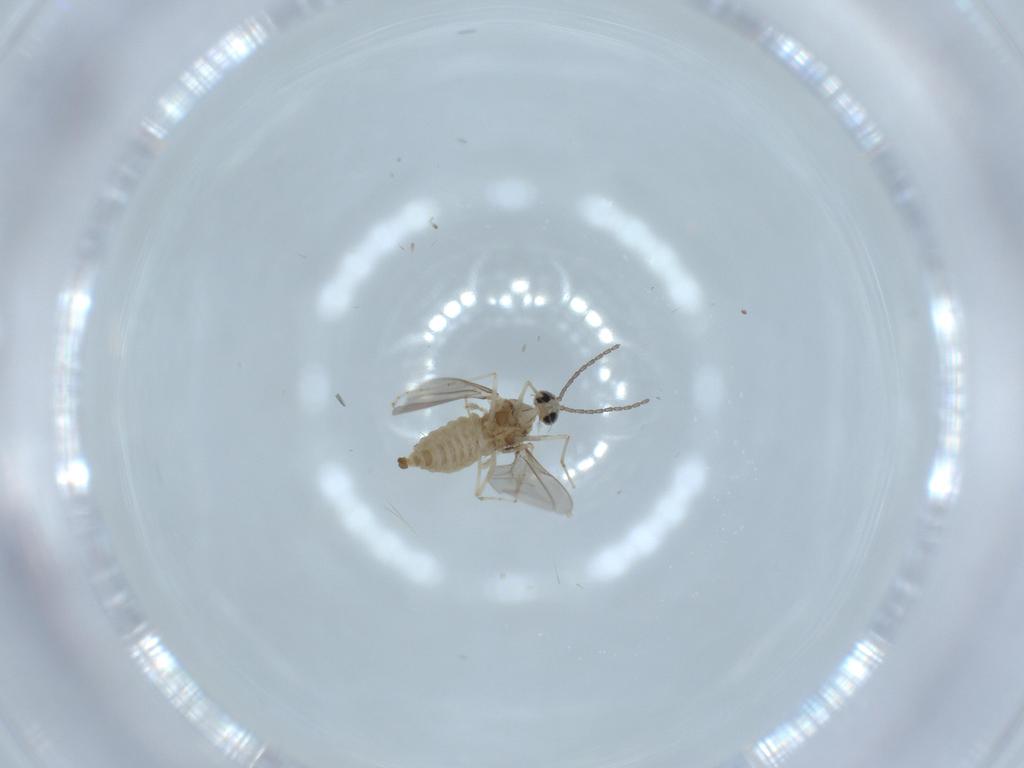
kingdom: Animalia
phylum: Arthropoda
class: Insecta
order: Diptera
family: Cecidomyiidae
